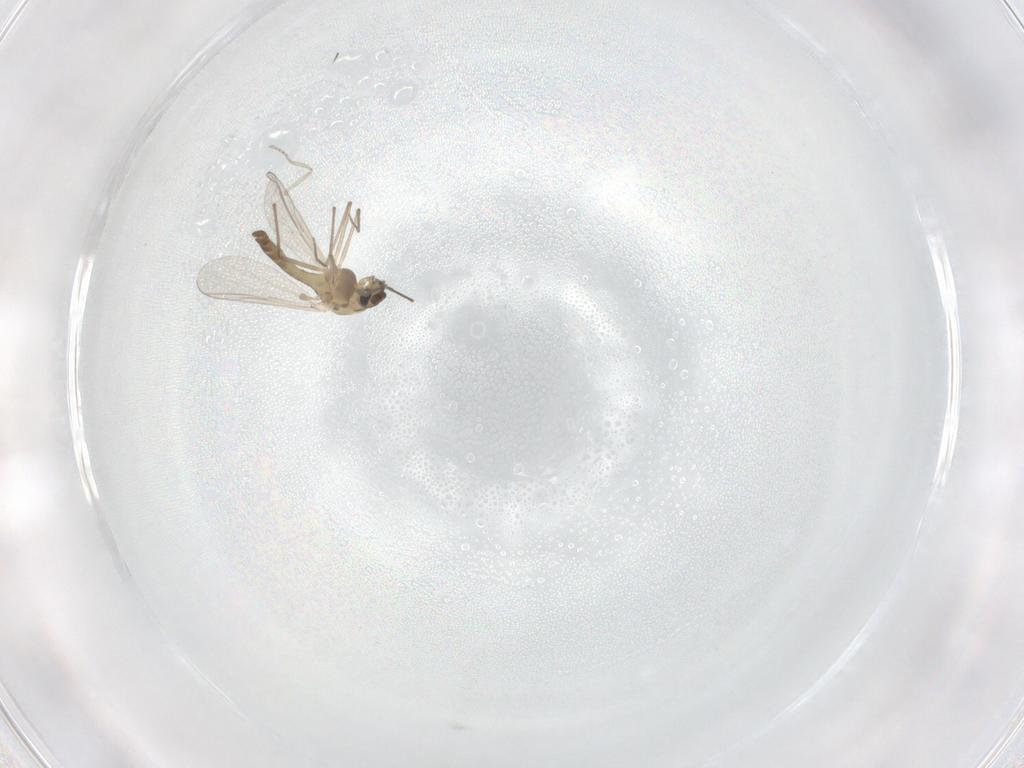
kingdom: Animalia
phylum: Arthropoda
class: Insecta
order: Diptera
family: Chironomidae
